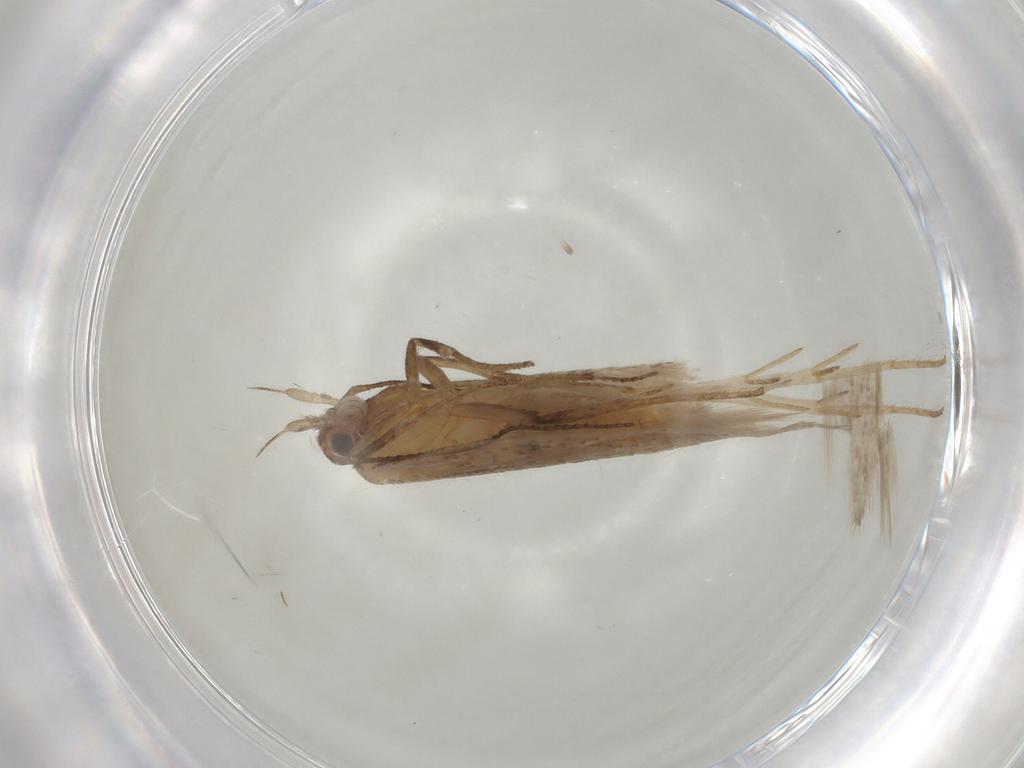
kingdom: Animalia
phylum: Arthropoda
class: Insecta
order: Lepidoptera
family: Gelechiidae
